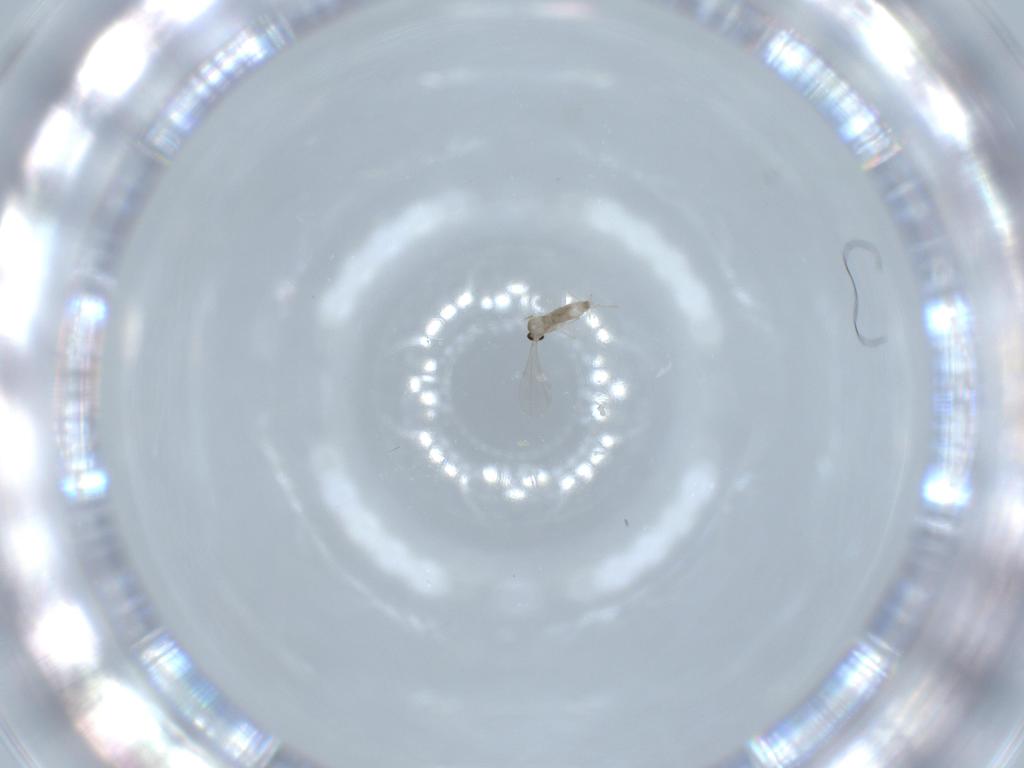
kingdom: Animalia
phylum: Arthropoda
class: Insecta
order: Diptera
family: Cecidomyiidae
